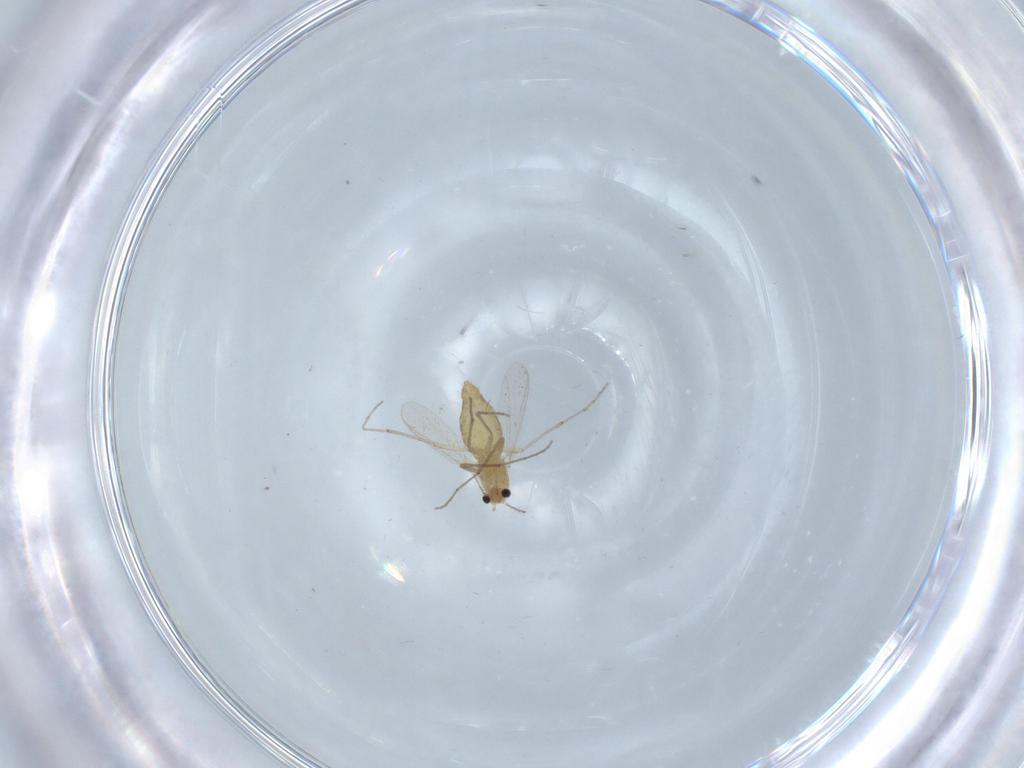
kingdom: Animalia
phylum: Arthropoda
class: Insecta
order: Diptera
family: Chironomidae
